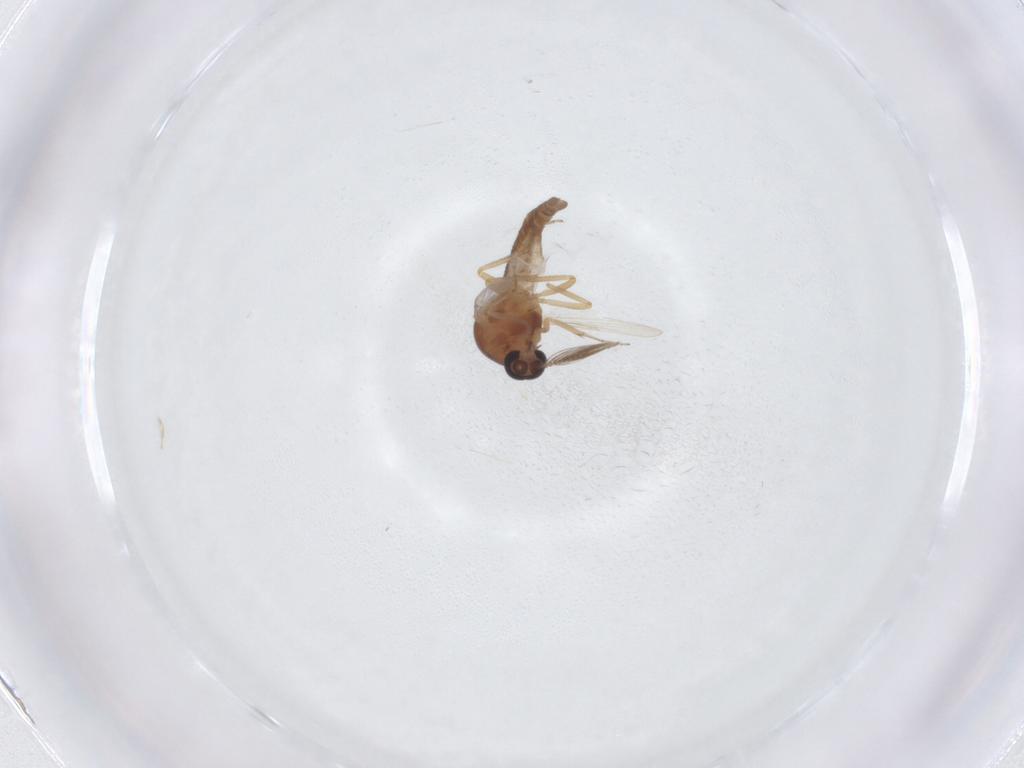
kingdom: Animalia
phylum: Arthropoda
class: Insecta
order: Diptera
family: Ceratopogonidae
